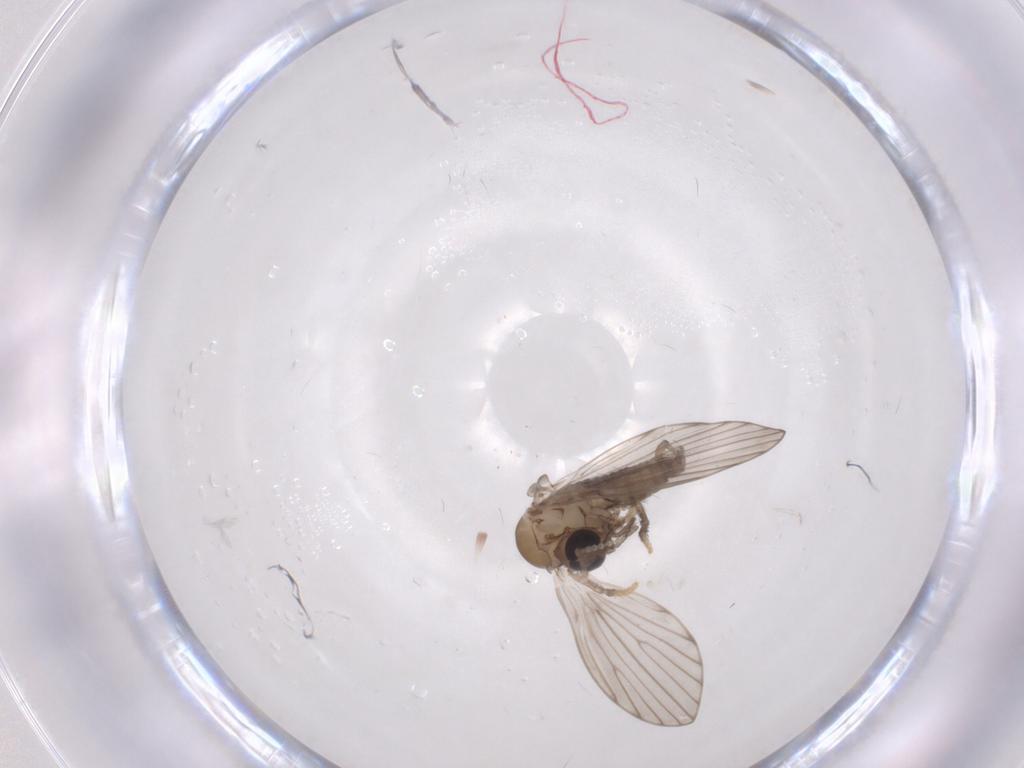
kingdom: Animalia
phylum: Arthropoda
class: Insecta
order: Diptera
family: Psychodidae
